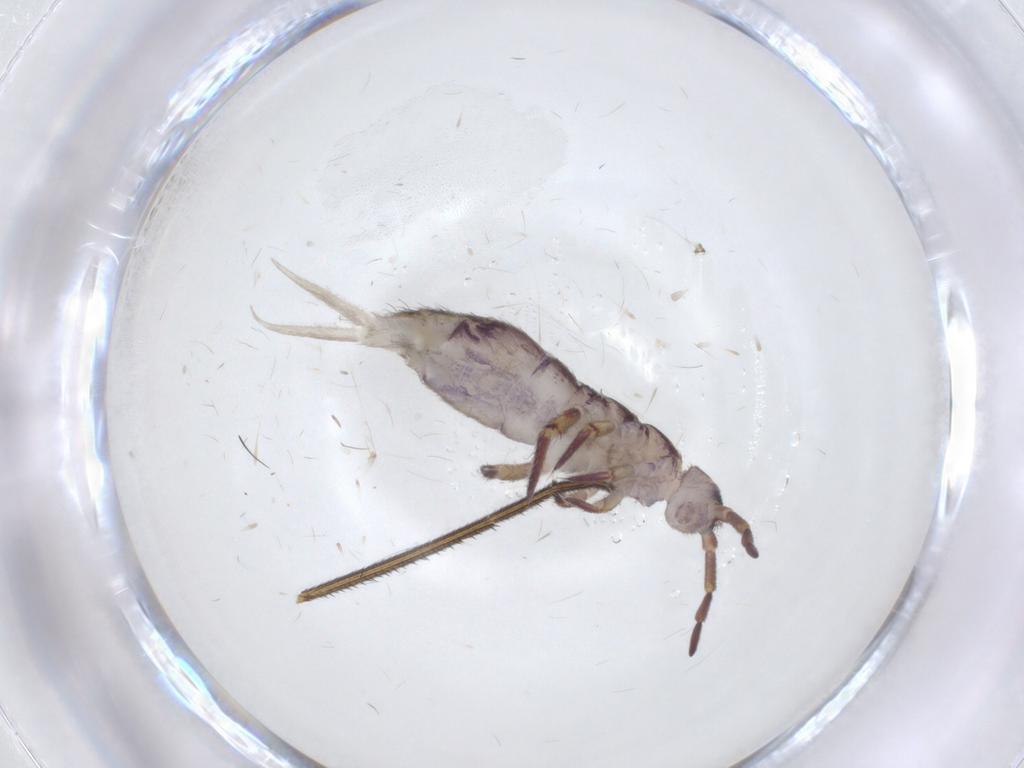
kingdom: Animalia
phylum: Arthropoda
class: Collembola
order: Entomobryomorpha
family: Isotomidae
